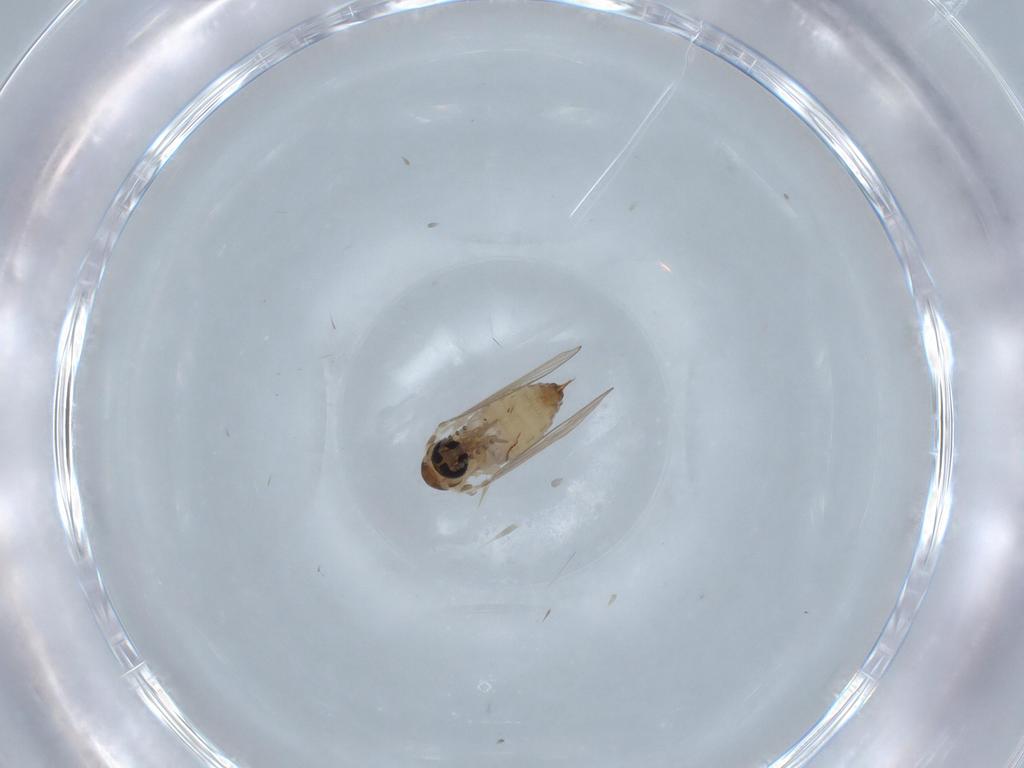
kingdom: Animalia
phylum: Arthropoda
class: Insecta
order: Diptera
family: Psychodidae
